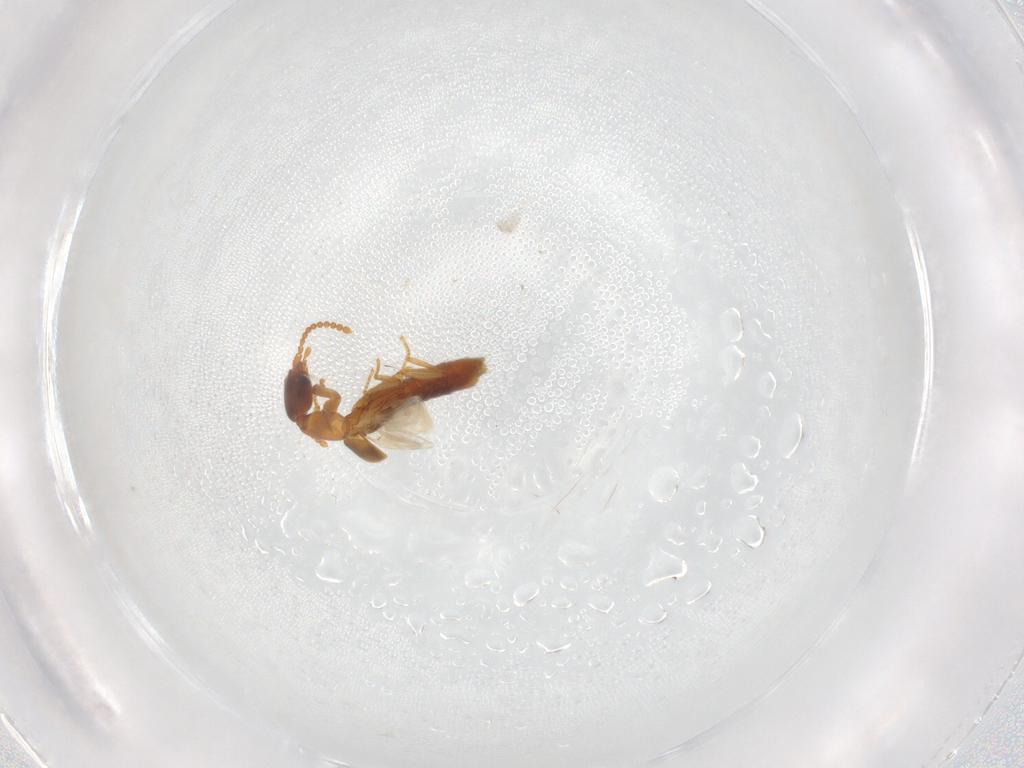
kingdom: Animalia
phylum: Arthropoda
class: Insecta
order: Coleoptera
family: Staphylinidae
